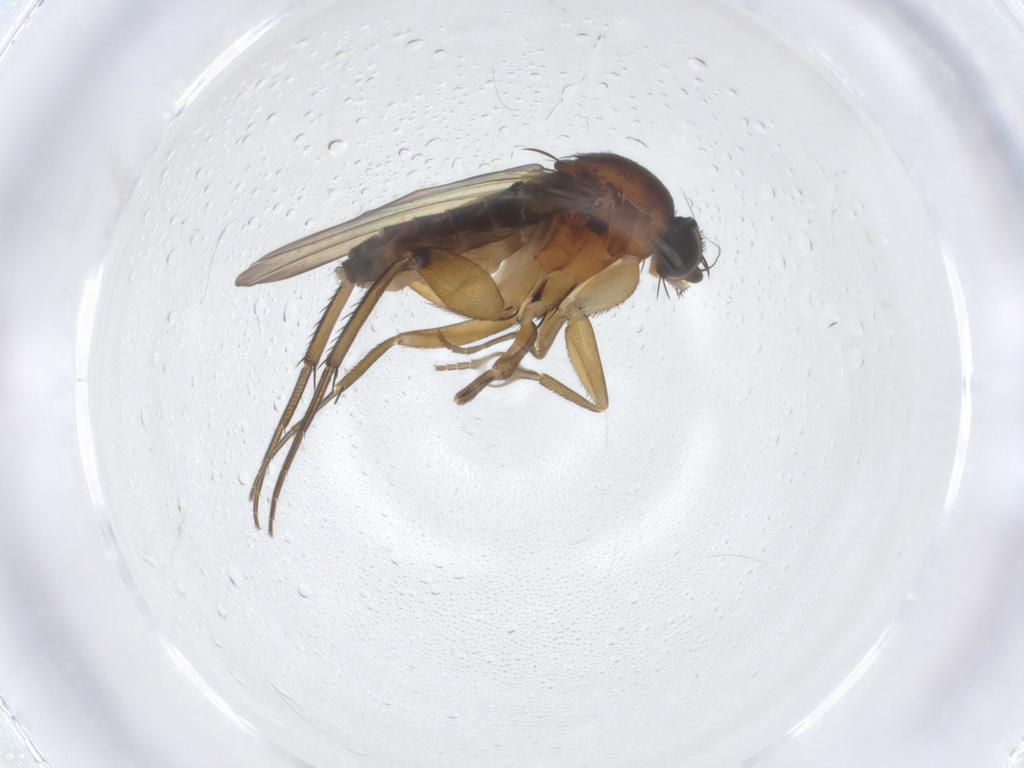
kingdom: Animalia
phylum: Arthropoda
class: Insecta
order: Diptera
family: Phoridae
